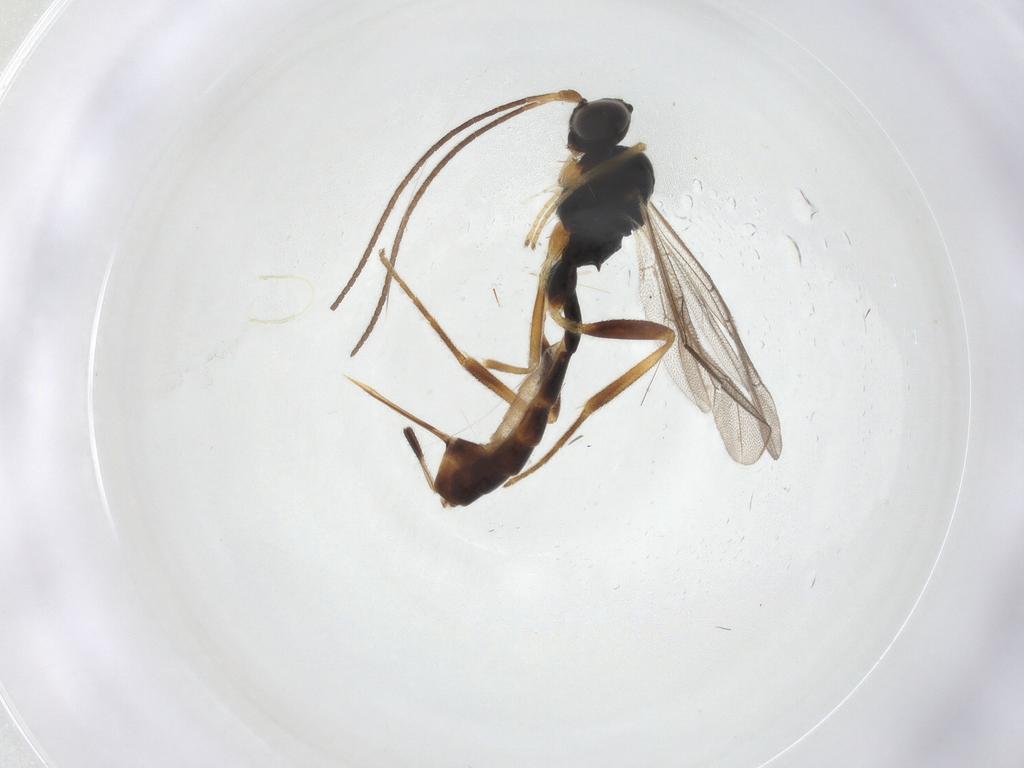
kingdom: Animalia
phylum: Arthropoda
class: Insecta
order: Hymenoptera
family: Ichneumonidae
